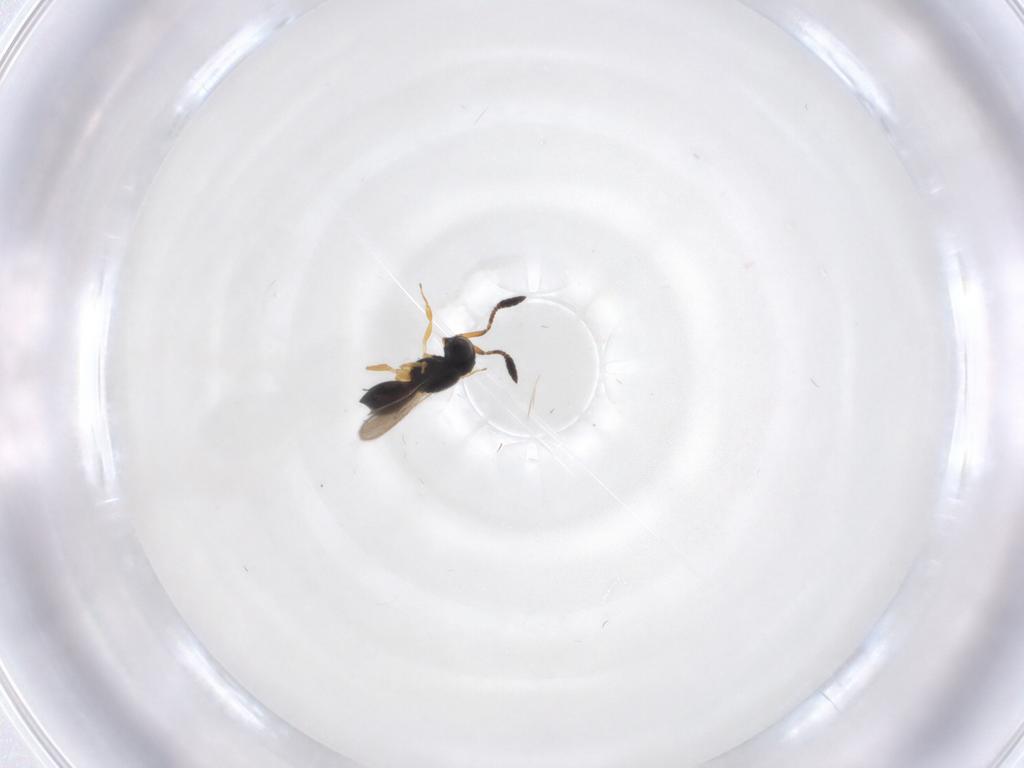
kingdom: Animalia
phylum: Arthropoda
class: Insecta
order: Hymenoptera
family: Scelionidae
